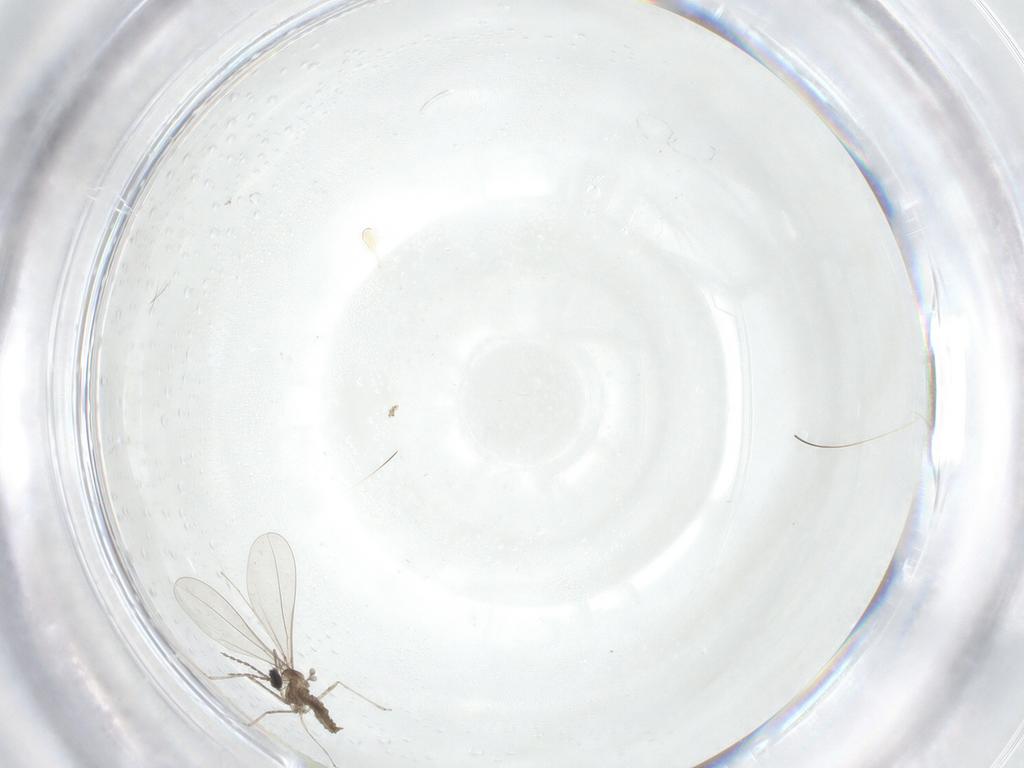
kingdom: Animalia
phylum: Arthropoda
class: Insecta
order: Diptera
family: Cecidomyiidae
